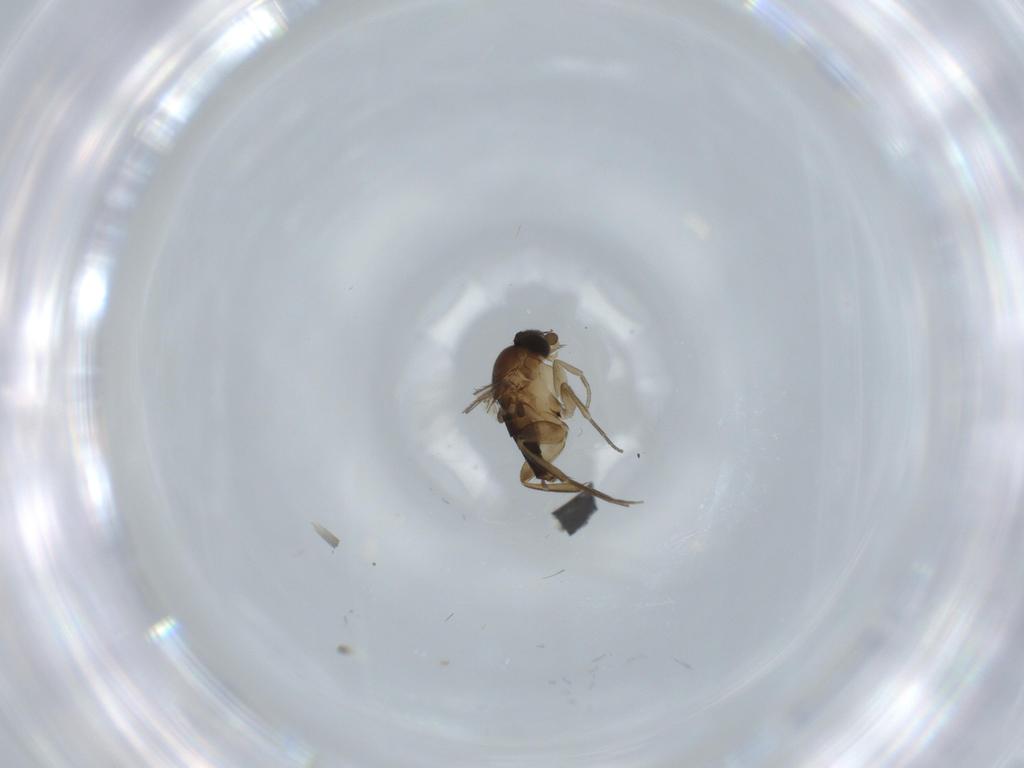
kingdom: Animalia
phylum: Arthropoda
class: Insecta
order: Diptera
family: Phoridae
